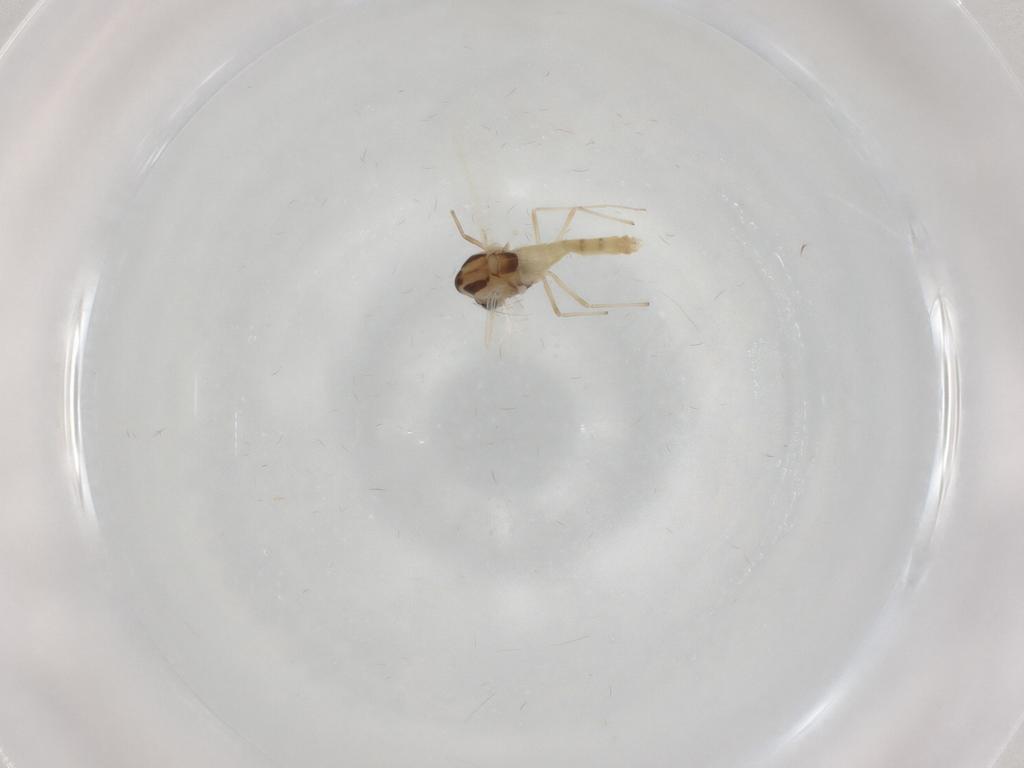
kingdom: Animalia
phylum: Arthropoda
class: Insecta
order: Diptera
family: Chironomidae
